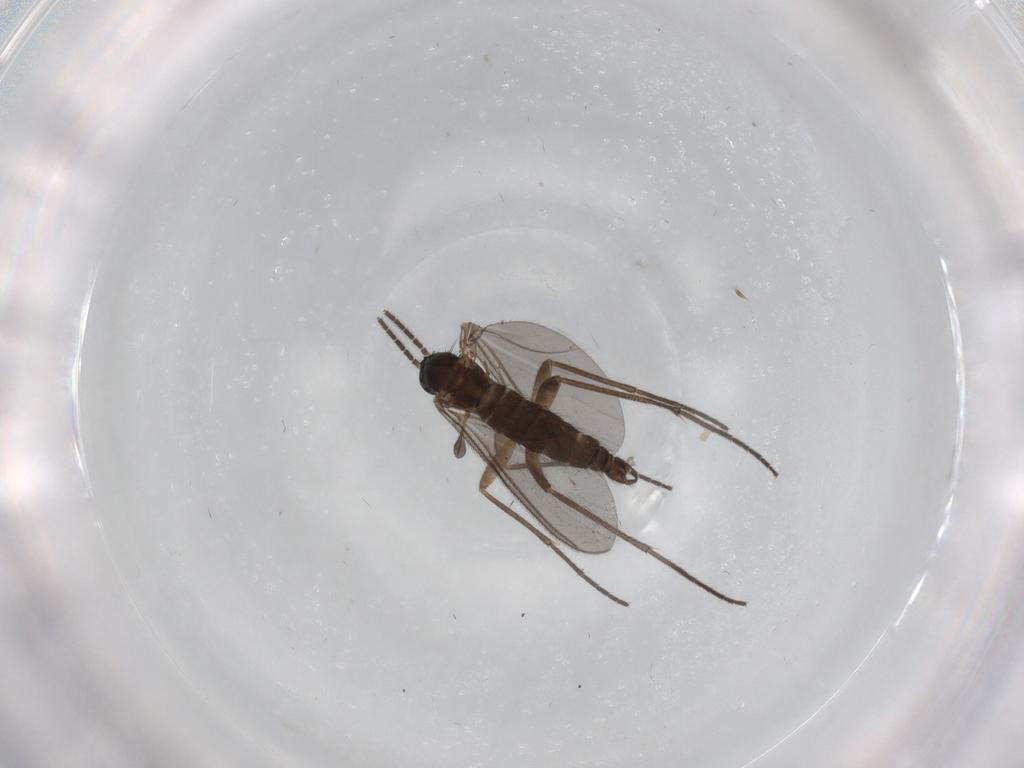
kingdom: Animalia
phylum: Arthropoda
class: Insecta
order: Diptera
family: Sciaridae
